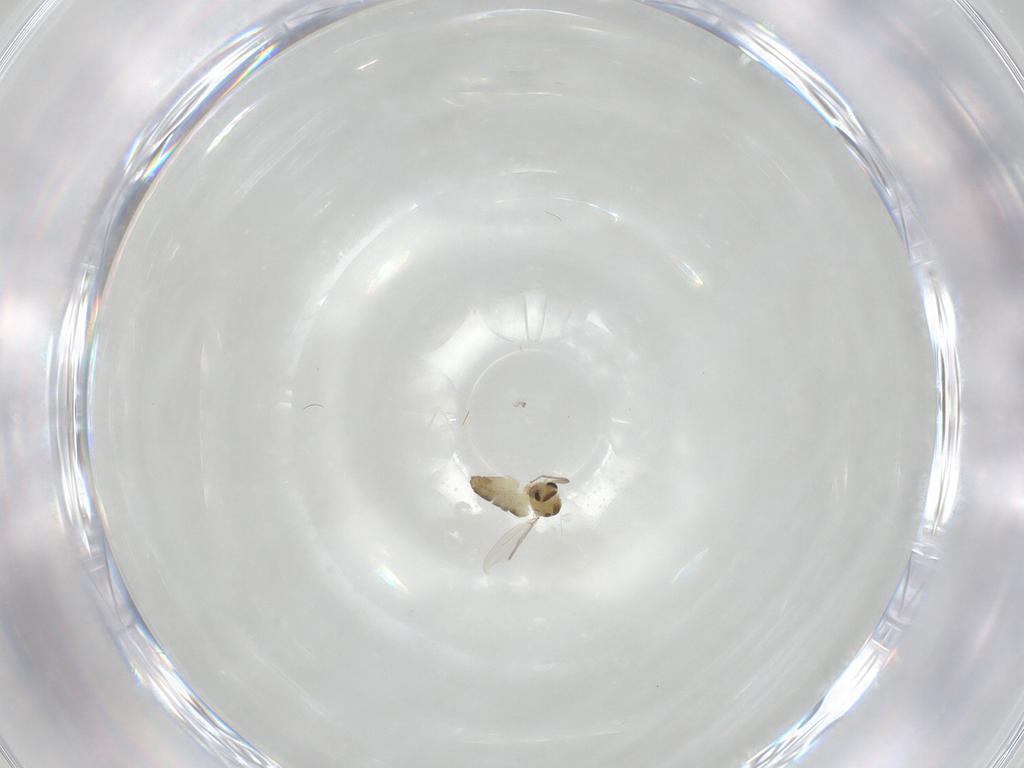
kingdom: Animalia
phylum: Arthropoda
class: Insecta
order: Diptera
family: Chironomidae
